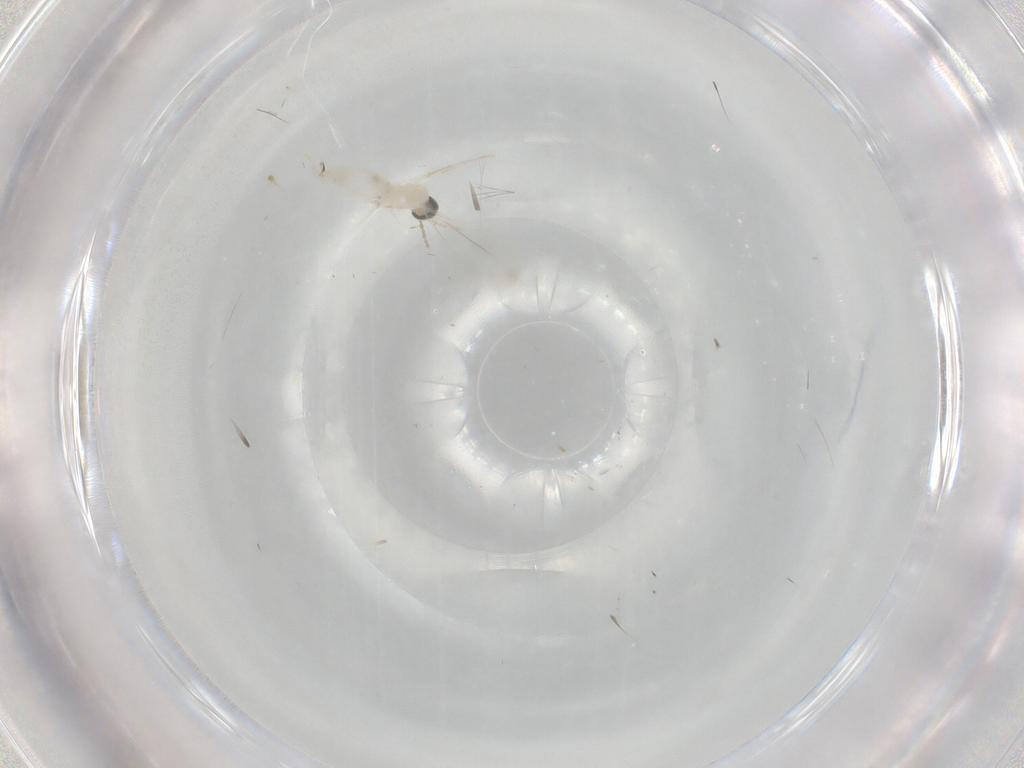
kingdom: Animalia
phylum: Arthropoda
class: Insecta
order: Diptera
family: Cecidomyiidae
